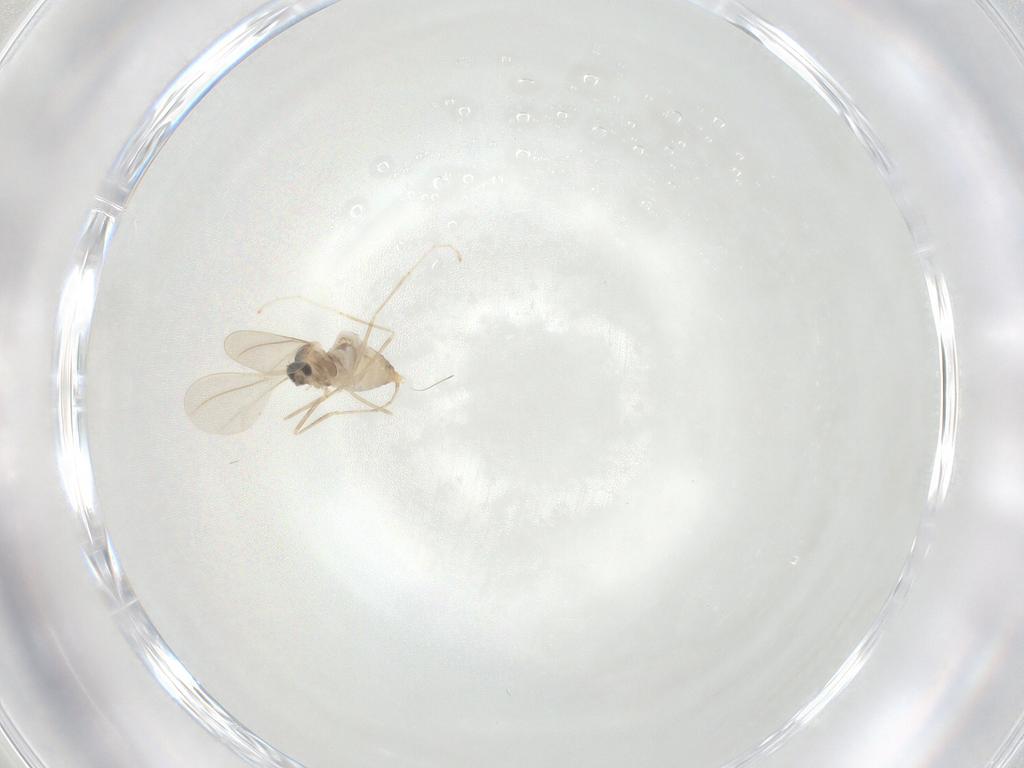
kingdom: Animalia
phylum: Arthropoda
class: Insecta
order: Diptera
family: Cecidomyiidae
